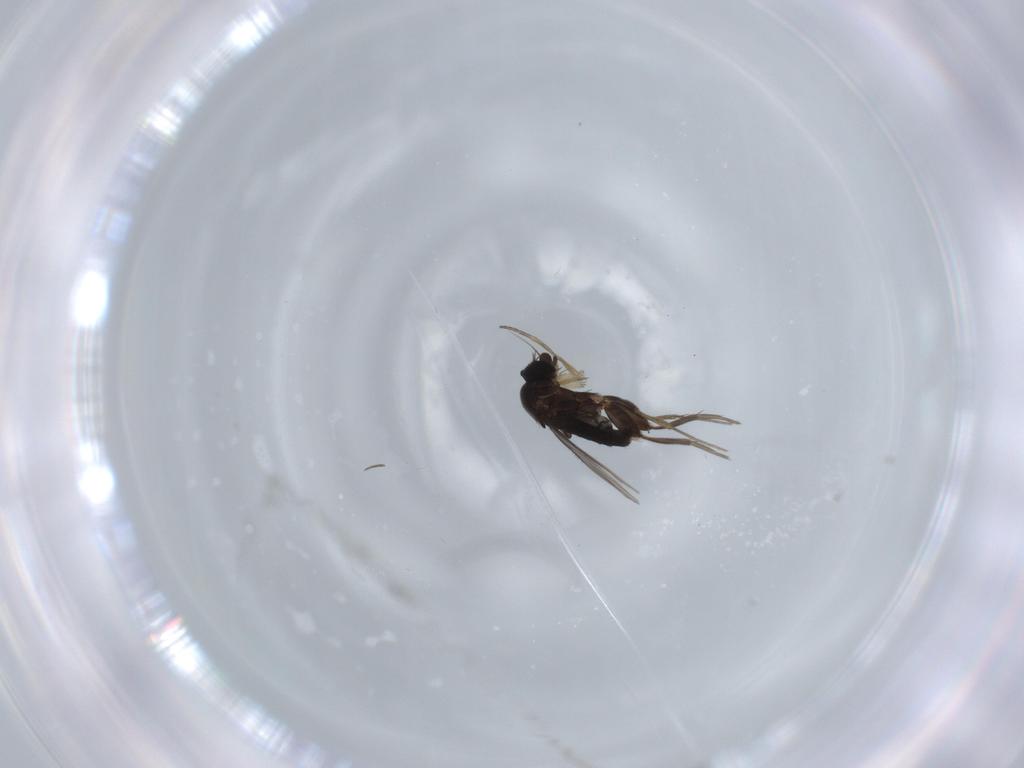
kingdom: Animalia
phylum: Arthropoda
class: Insecta
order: Diptera
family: Phoridae
